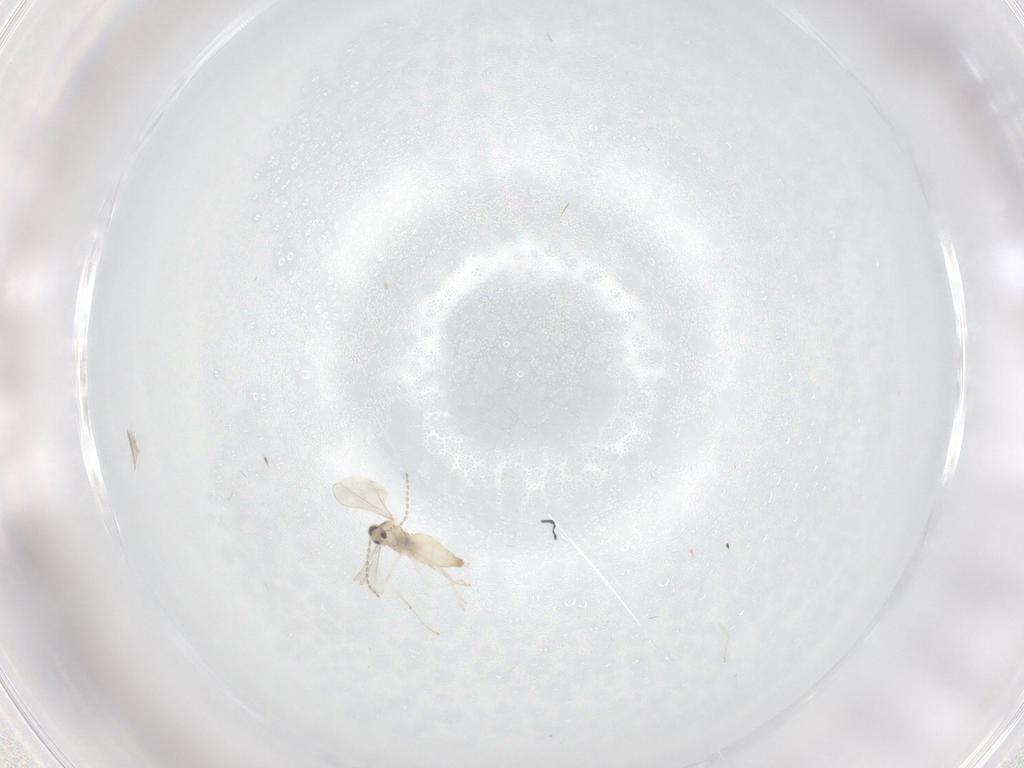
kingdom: Animalia
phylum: Arthropoda
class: Insecta
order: Diptera
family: Cecidomyiidae
